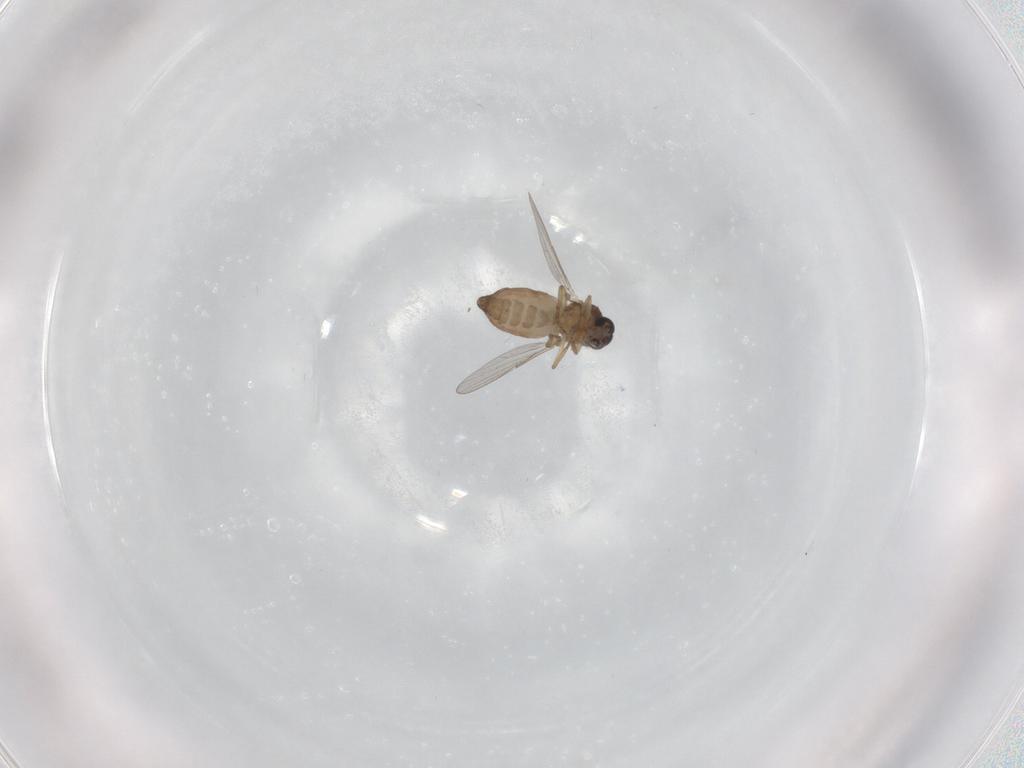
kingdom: Animalia
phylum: Arthropoda
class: Insecta
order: Diptera
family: Ceratopogonidae
